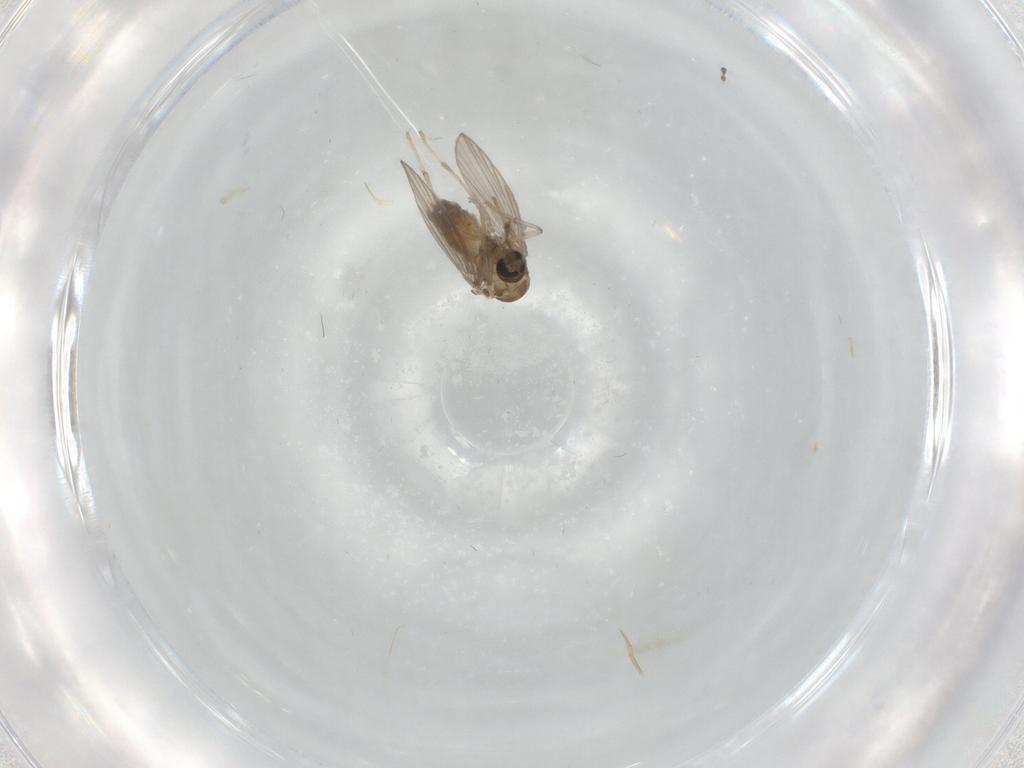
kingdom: Animalia
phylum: Arthropoda
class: Insecta
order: Diptera
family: Psychodidae
